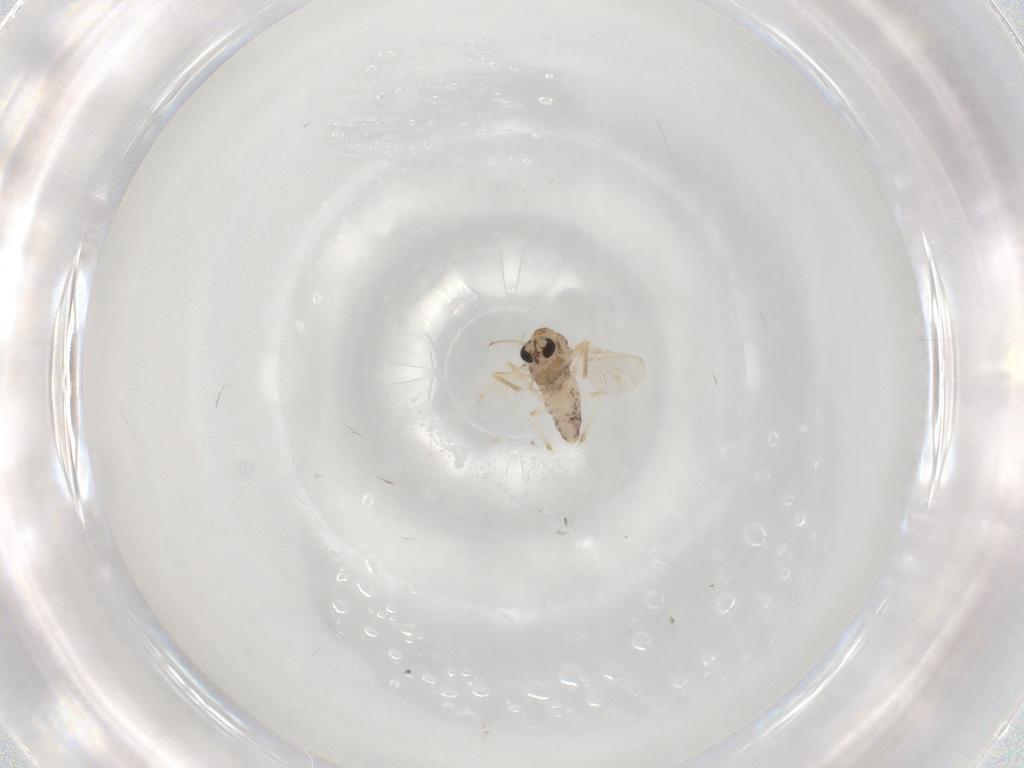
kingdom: Animalia
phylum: Arthropoda
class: Insecta
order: Diptera
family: Chironomidae
